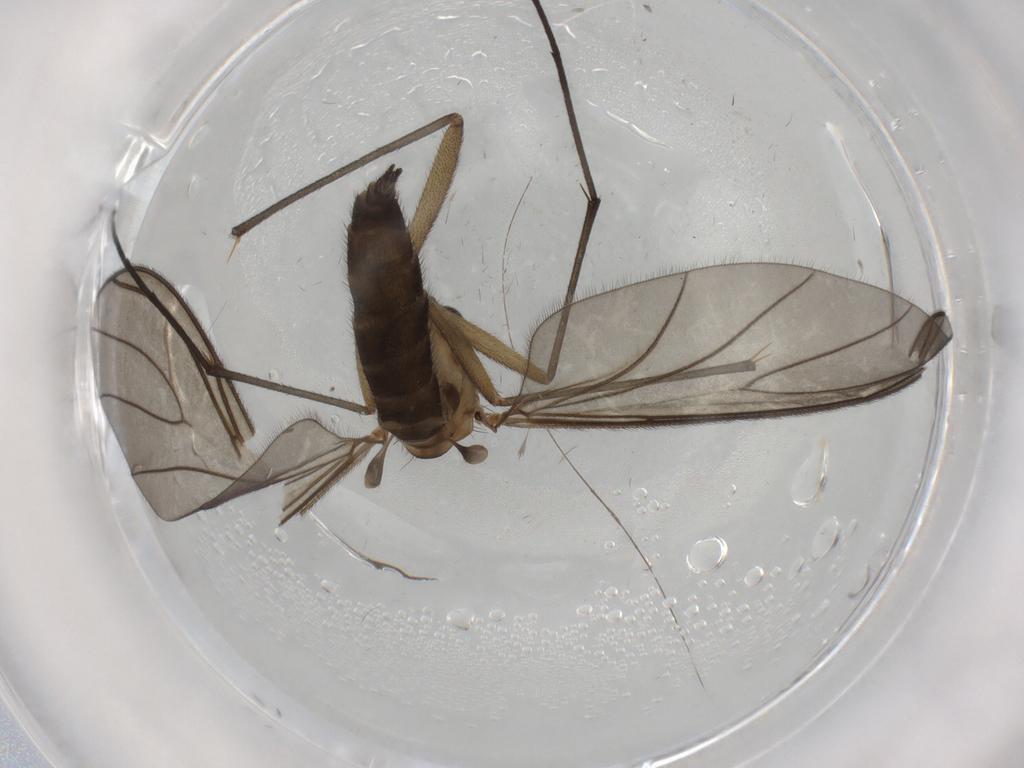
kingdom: Animalia
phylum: Arthropoda
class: Insecta
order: Diptera
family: Sciaridae
